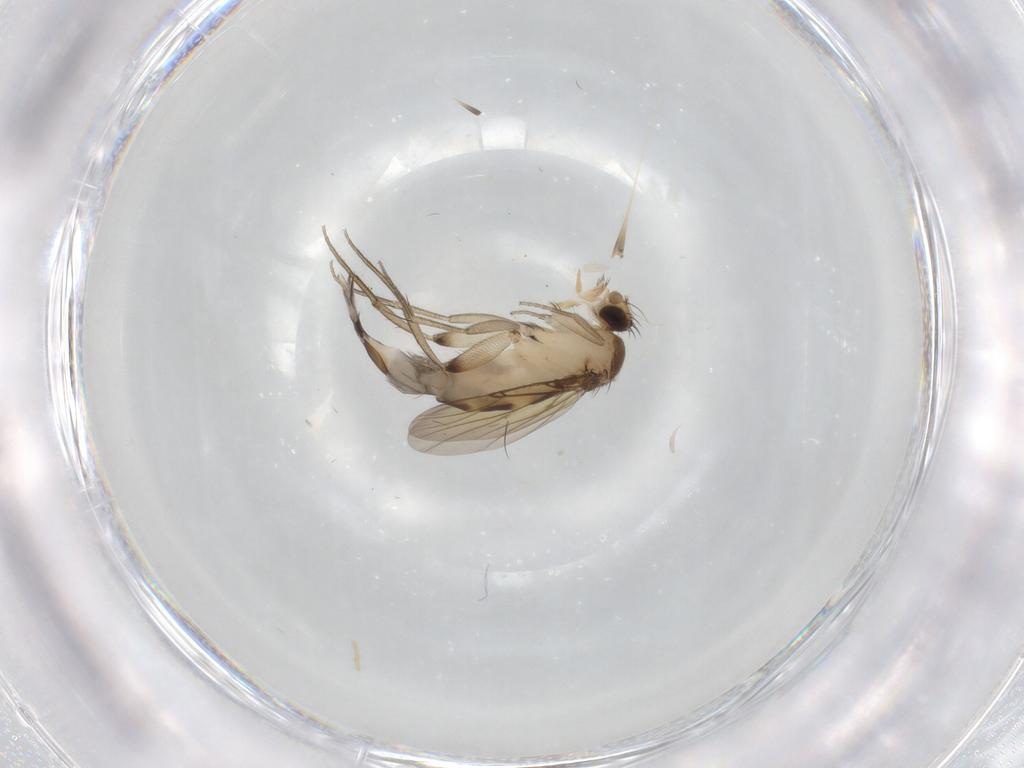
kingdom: Animalia
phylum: Arthropoda
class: Insecta
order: Diptera
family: Phoridae
